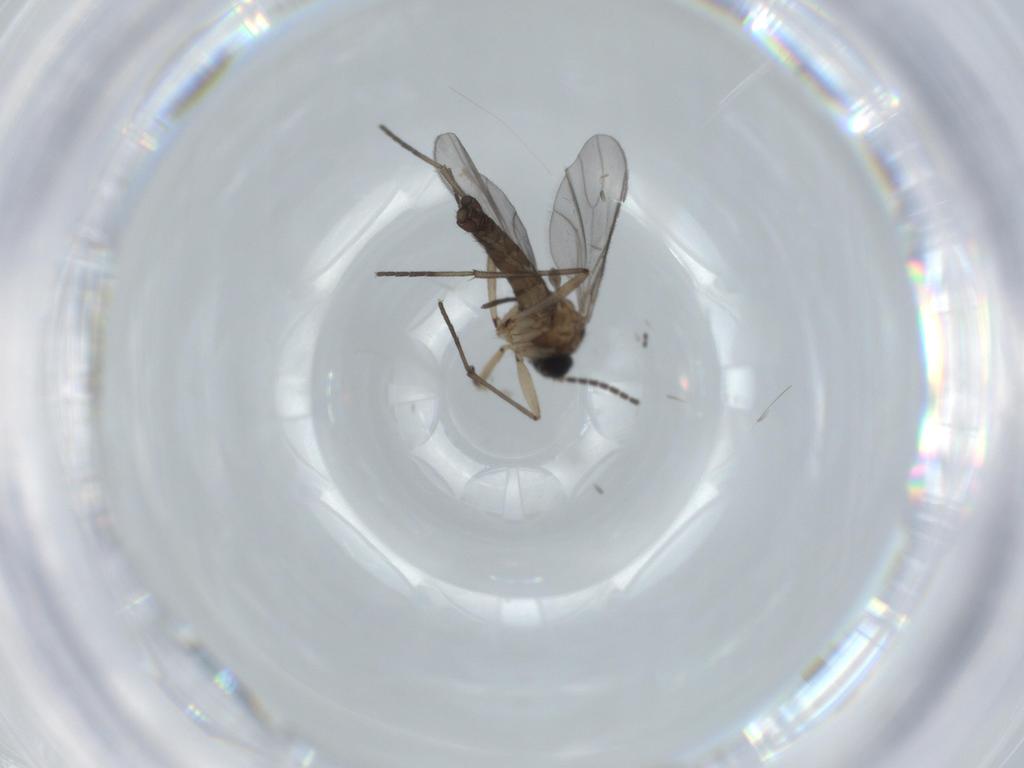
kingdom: Animalia
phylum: Arthropoda
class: Insecta
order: Diptera
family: Sciaridae
